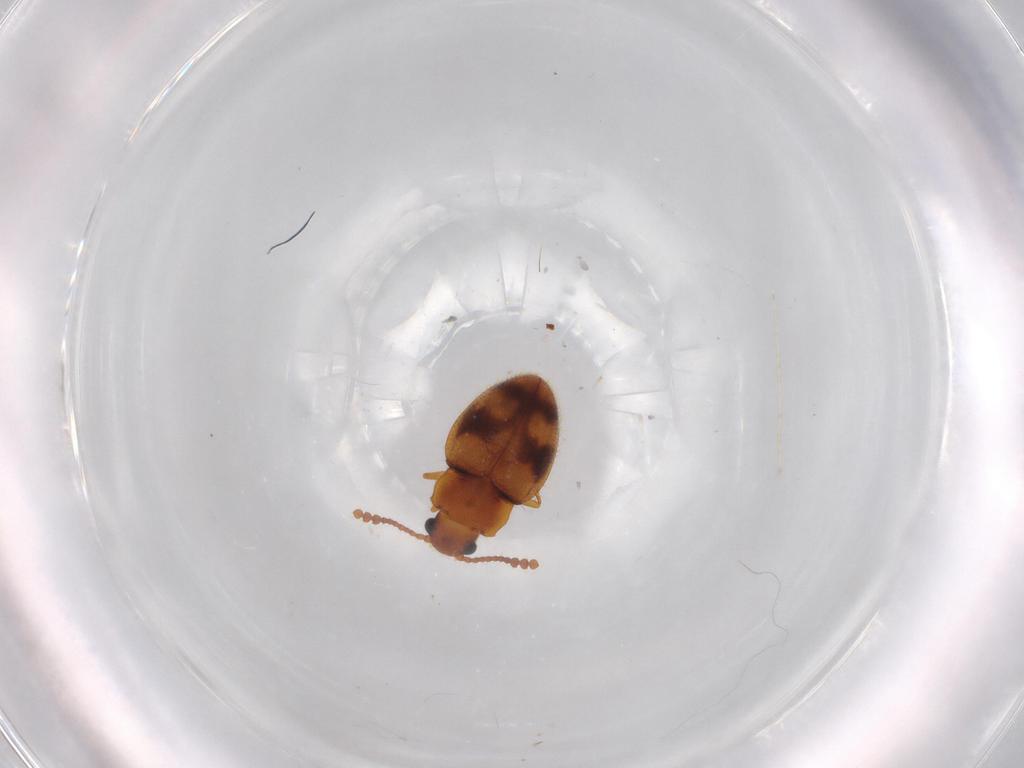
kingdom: Animalia
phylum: Arthropoda
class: Insecta
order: Coleoptera
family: Erotylidae
